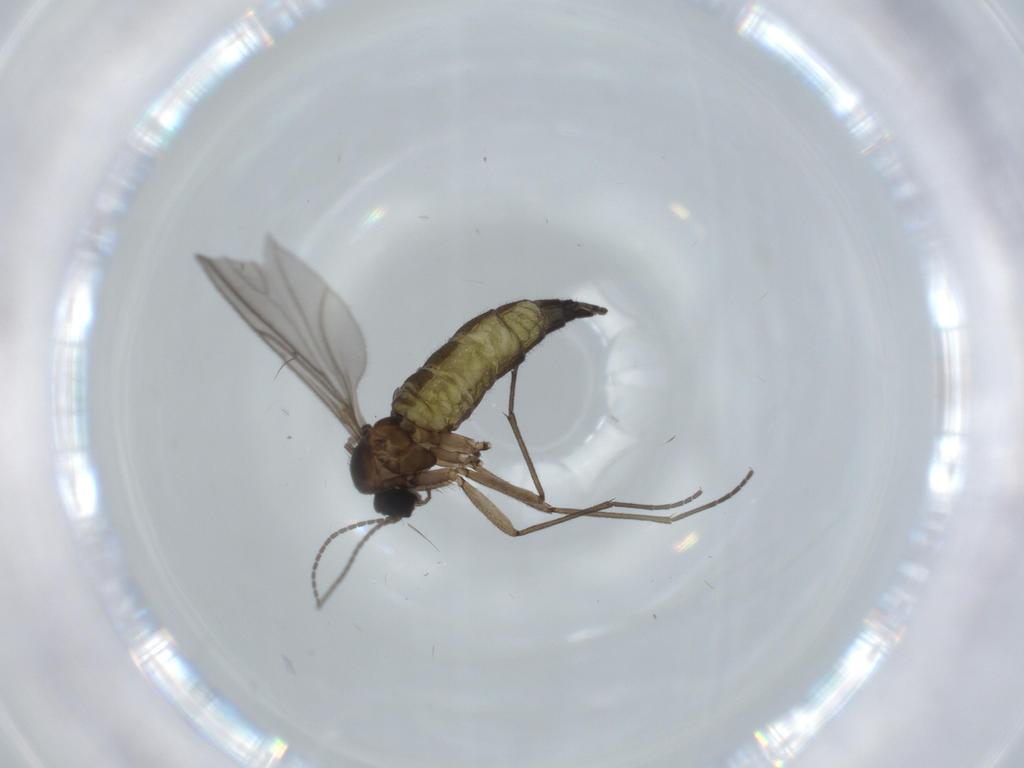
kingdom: Animalia
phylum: Arthropoda
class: Insecta
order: Diptera
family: Sciaridae
